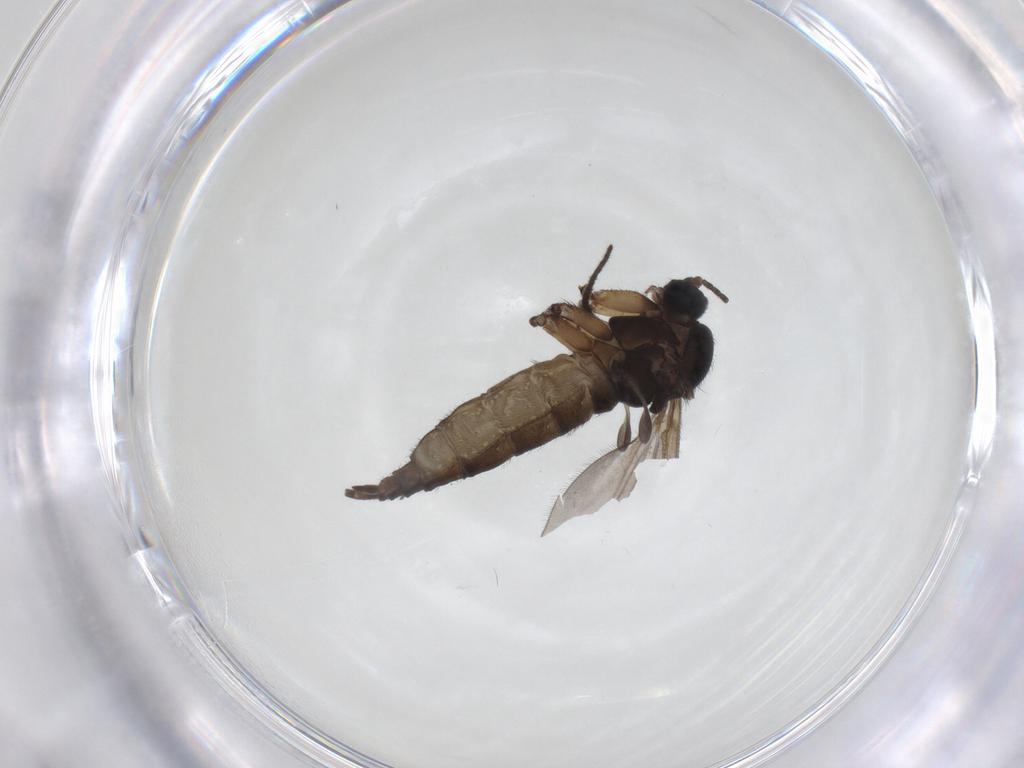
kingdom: Animalia
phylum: Arthropoda
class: Insecta
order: Diptera
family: Sciaridae
